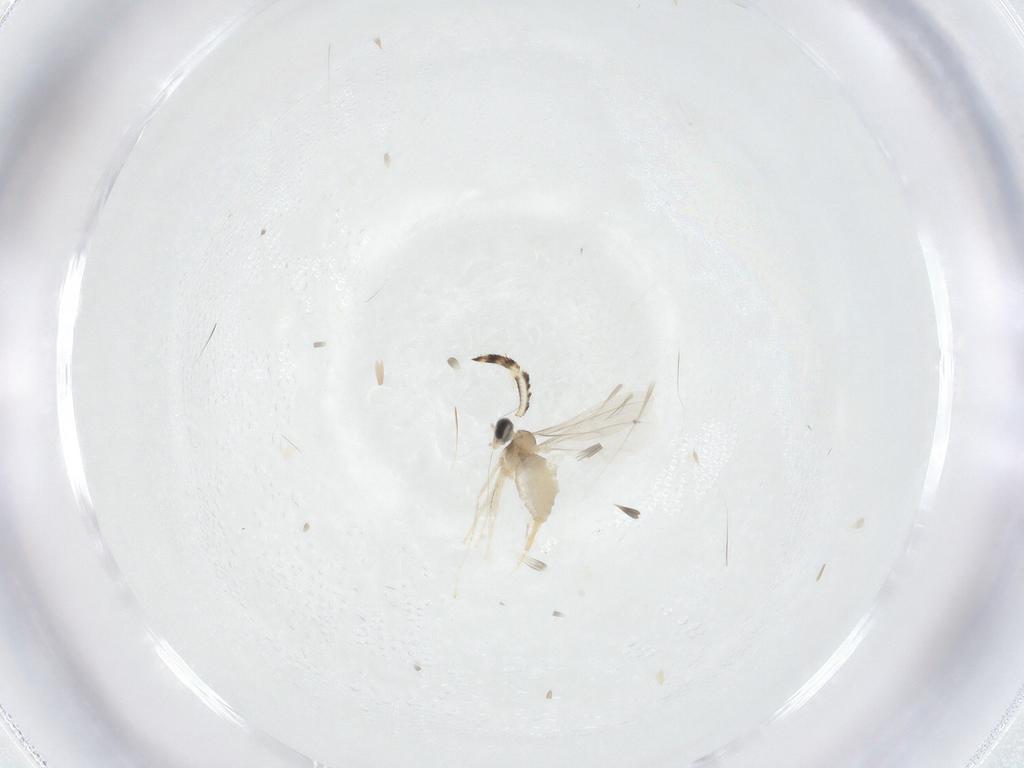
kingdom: Animalia
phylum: Arthropoda
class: Insecta
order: Diptera
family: Cecidomyiidae
